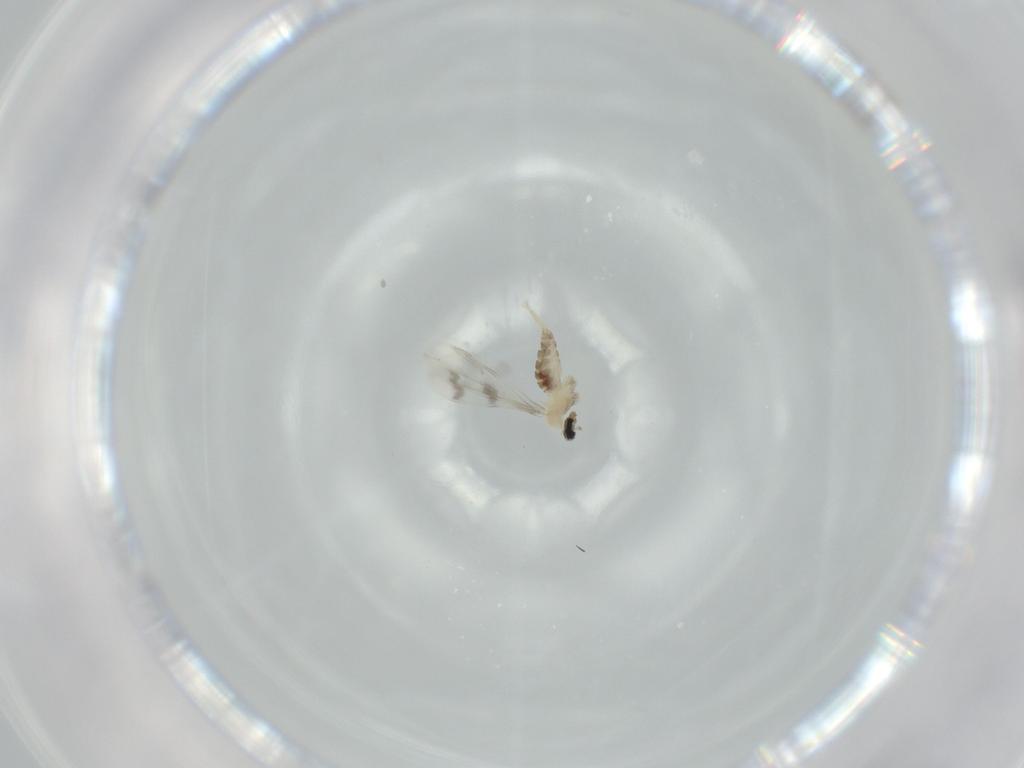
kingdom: Animalia
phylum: Arthropoda
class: Insecta
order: Diptera
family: Cecidomyiidae
